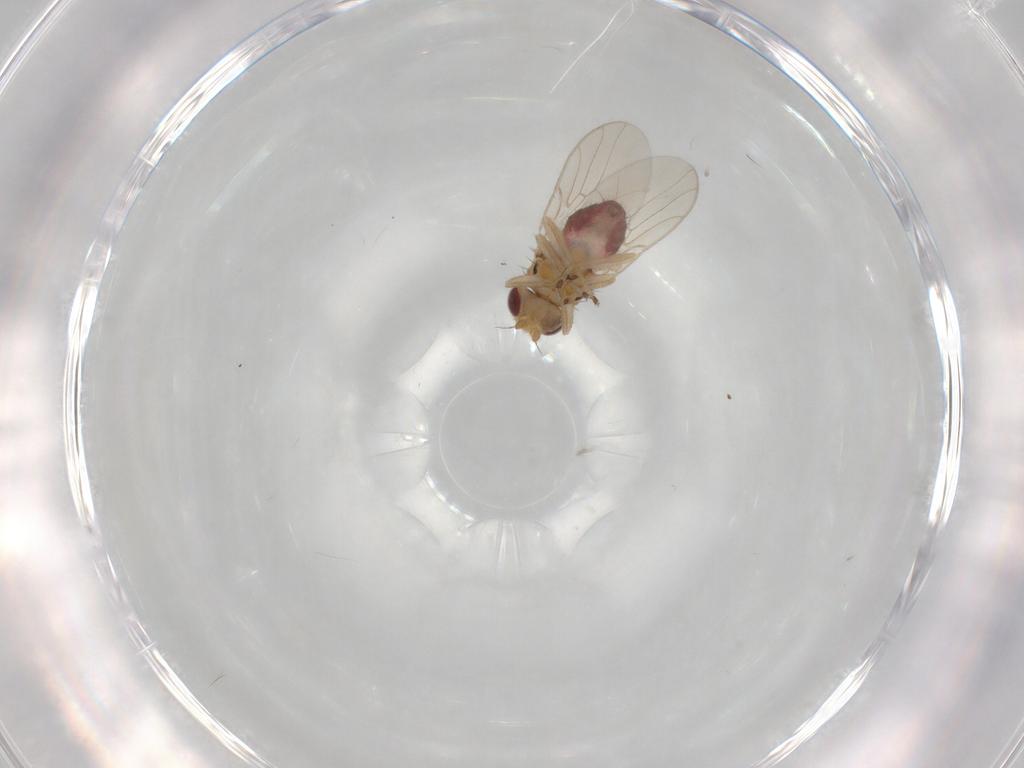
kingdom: Animalia
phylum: Arthropoda
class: Insecta
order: Diptera
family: Chloropidae
